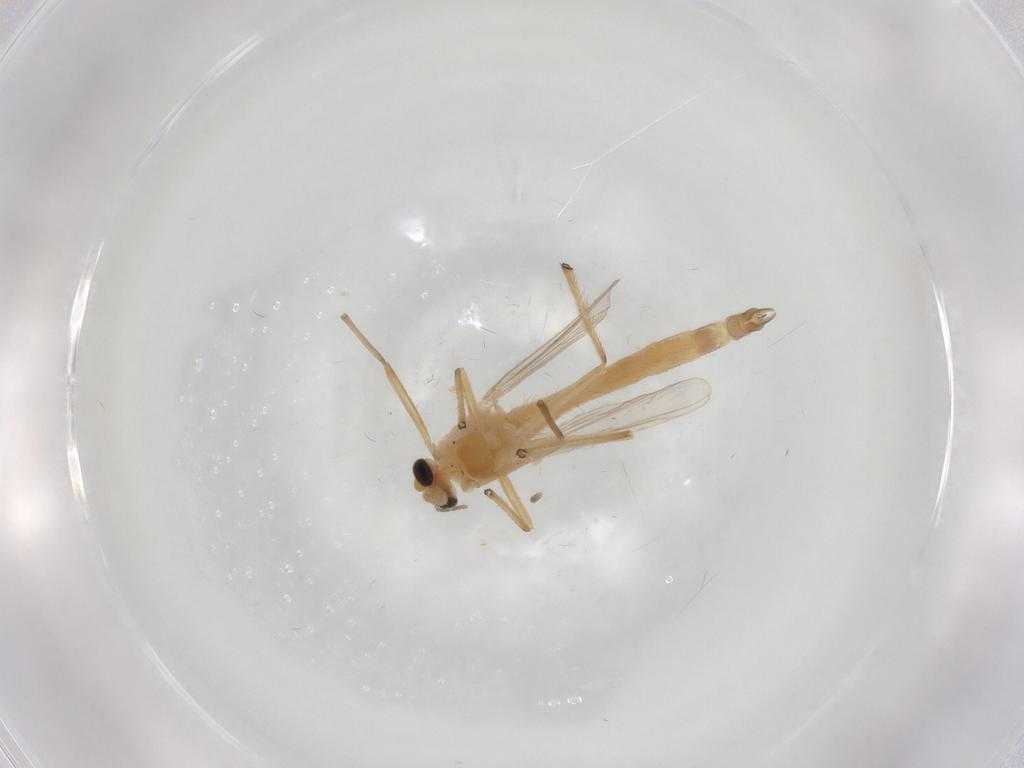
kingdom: Animalia
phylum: Arthropoda
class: Insecta
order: Diptera
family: Chironomidae
